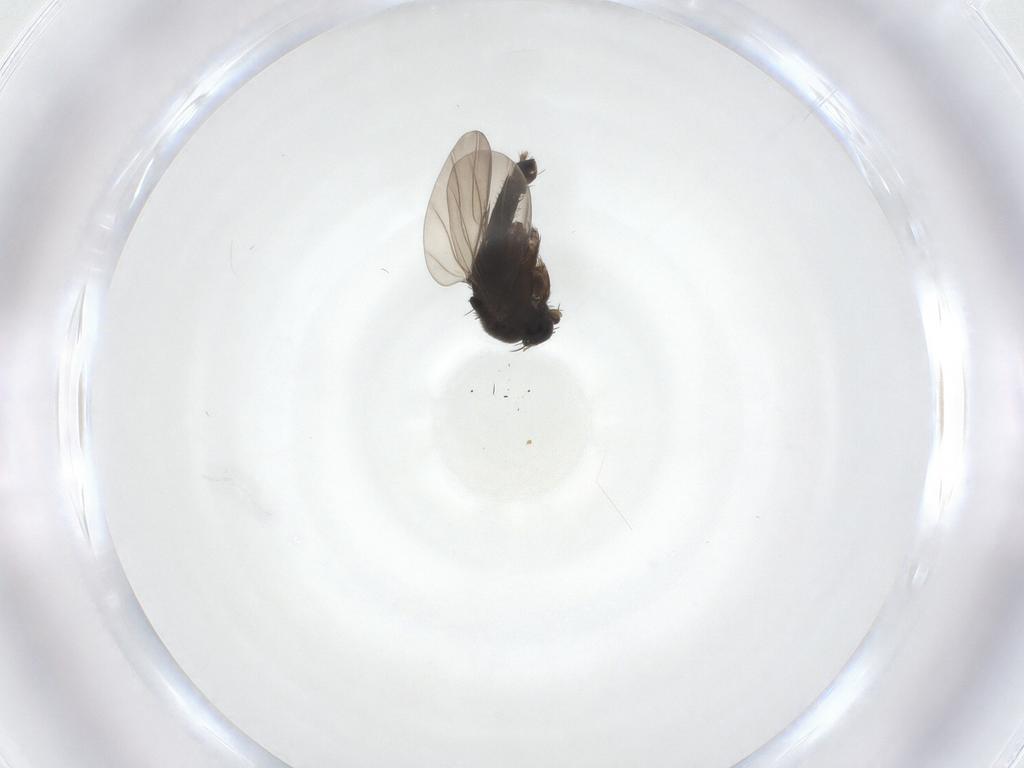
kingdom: Animalia
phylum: Arthropoda
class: Insecta
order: Diptera
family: Phoridae
